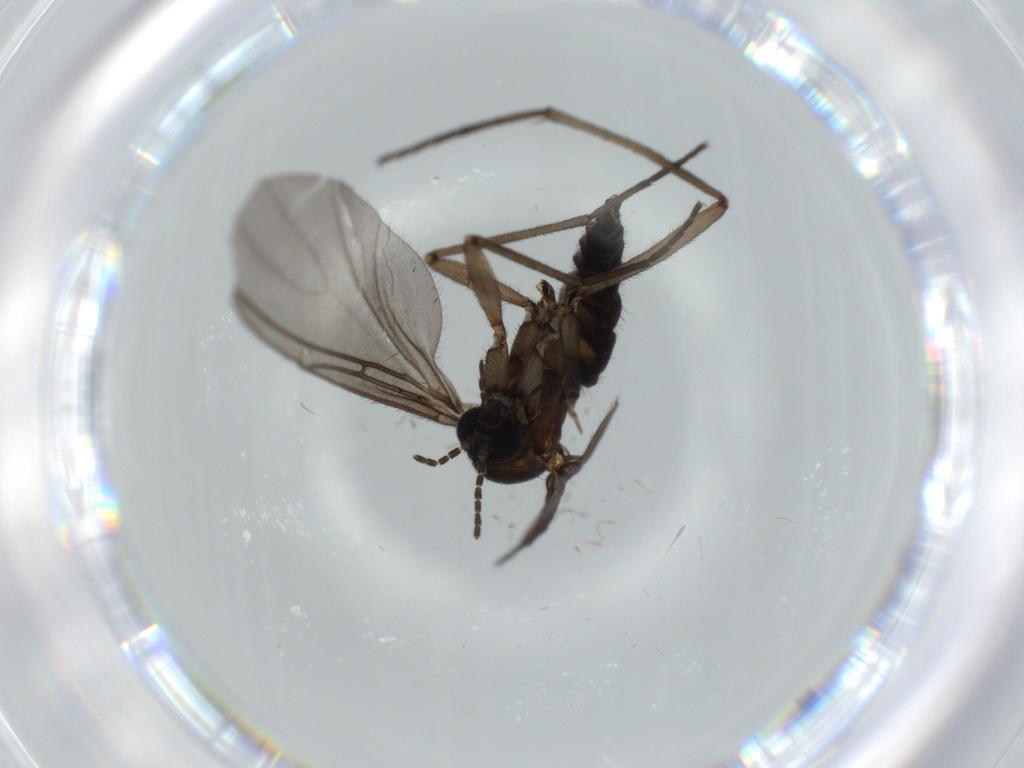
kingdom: Animalia
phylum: Arthropoda
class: Insecta
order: Diptera
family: Sciaridae
